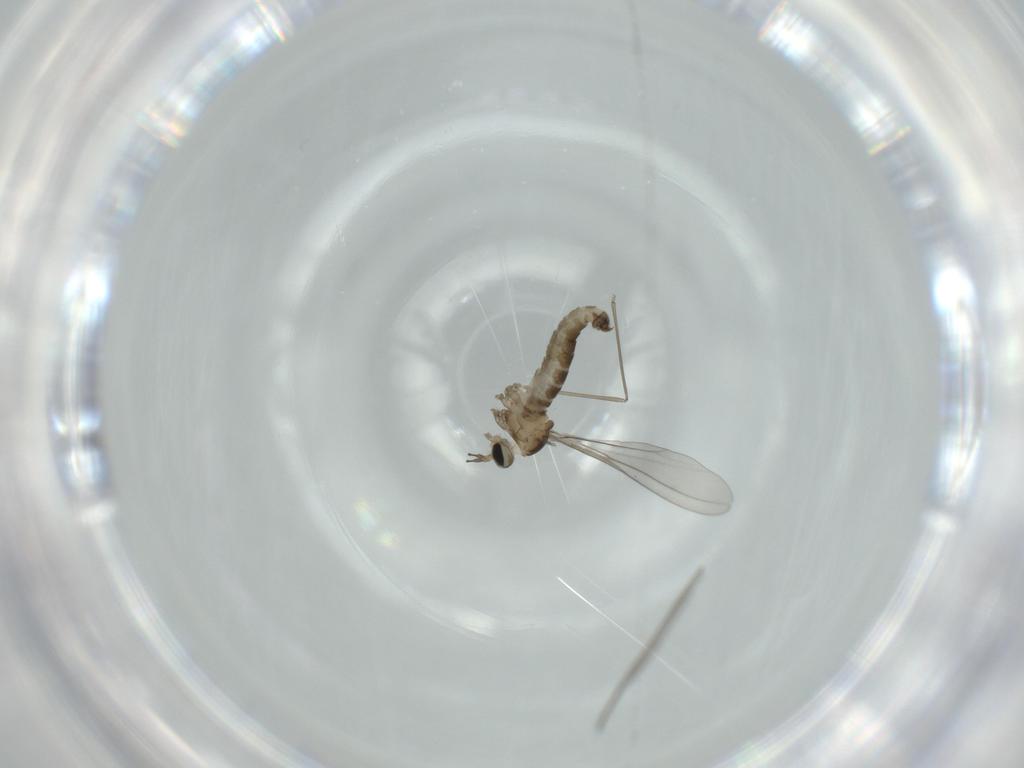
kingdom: Animalia
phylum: Arthropoda
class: Insecta
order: Diptera
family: Cecidomyiidae
